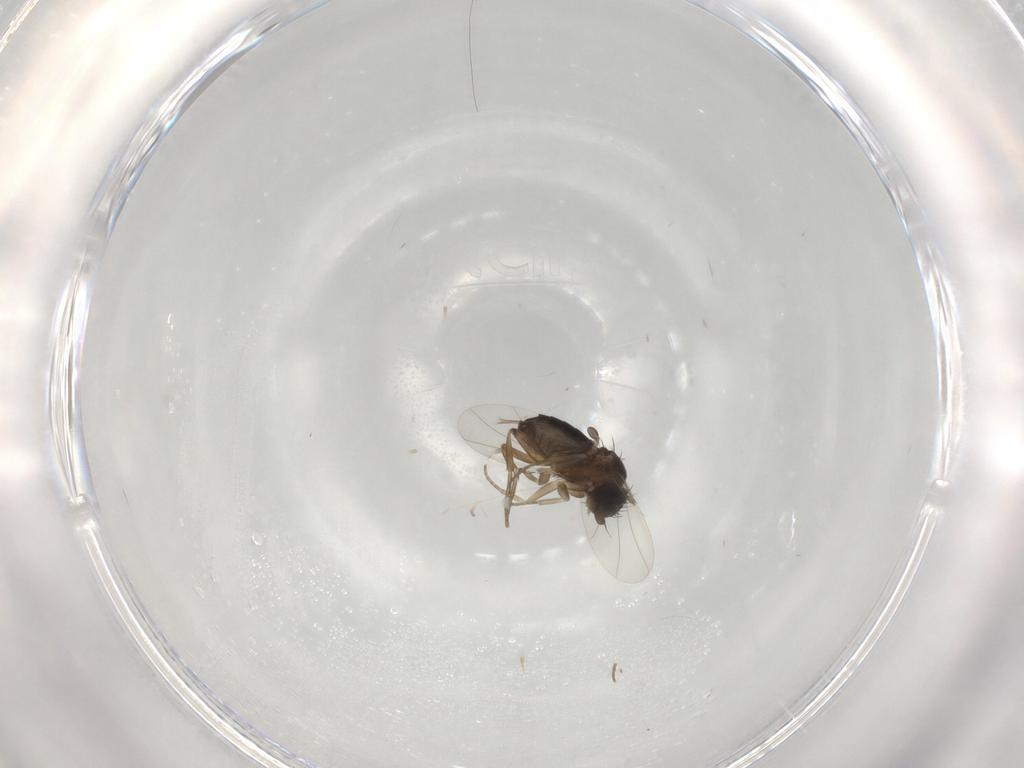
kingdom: Animalia
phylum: Arthropoda
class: Insecta
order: Diptera
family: Phoridae
